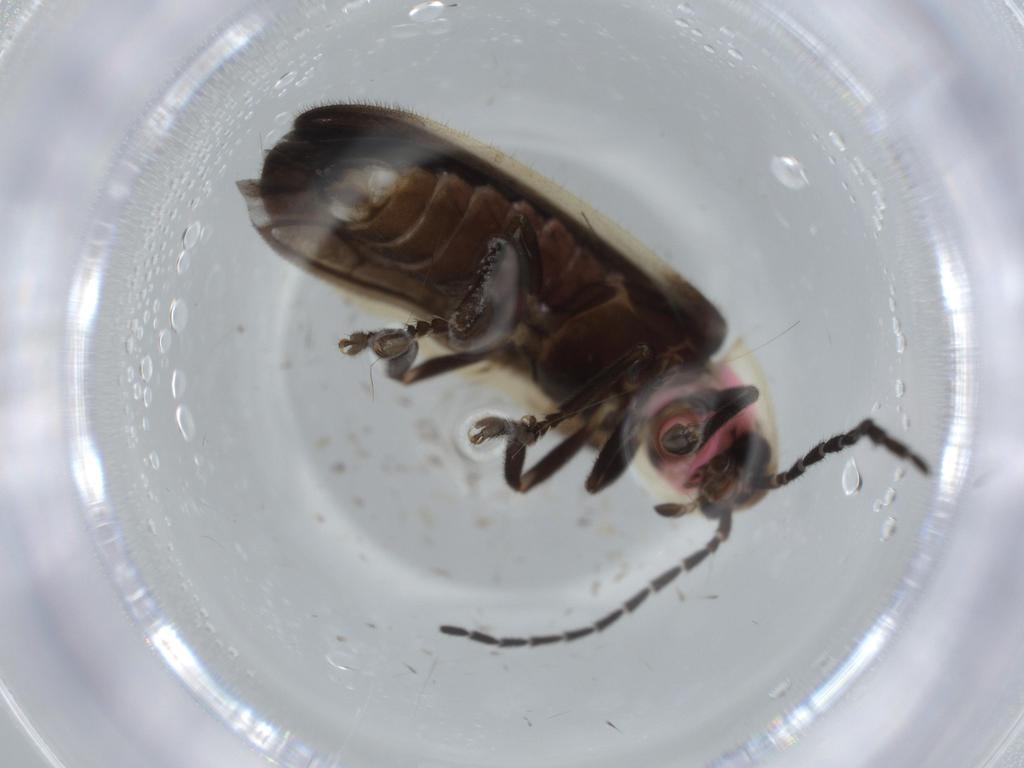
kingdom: Animalia
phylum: Arthropoda
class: Insecta
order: Coleoptera
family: Lampyridae
